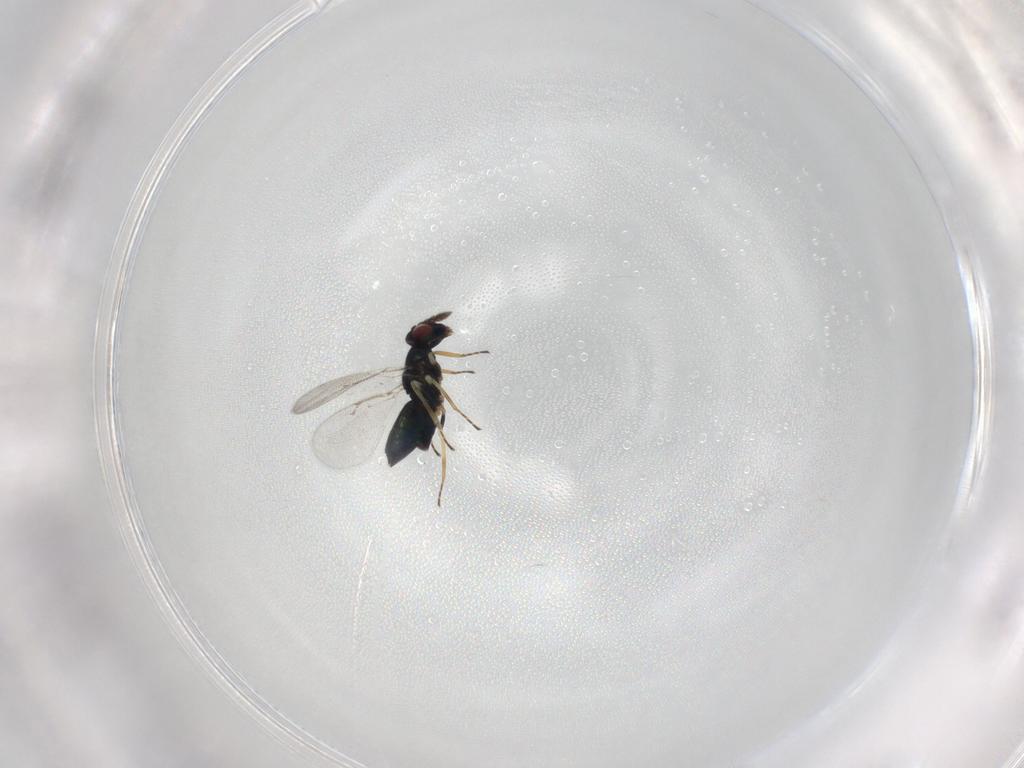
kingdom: Animalia
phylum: Arthropoda
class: Insecta
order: Hymenoptera
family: Eulophidae
